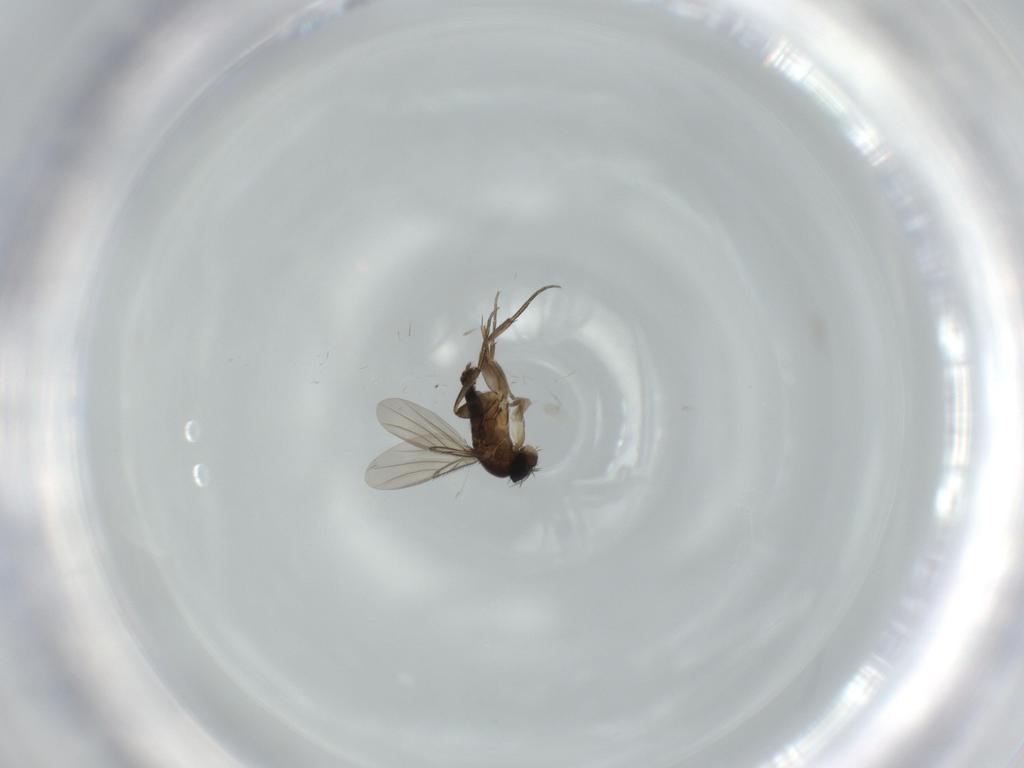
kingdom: Animalia
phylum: Arthropoda
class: Insecta
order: Diptera
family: Phoridae
